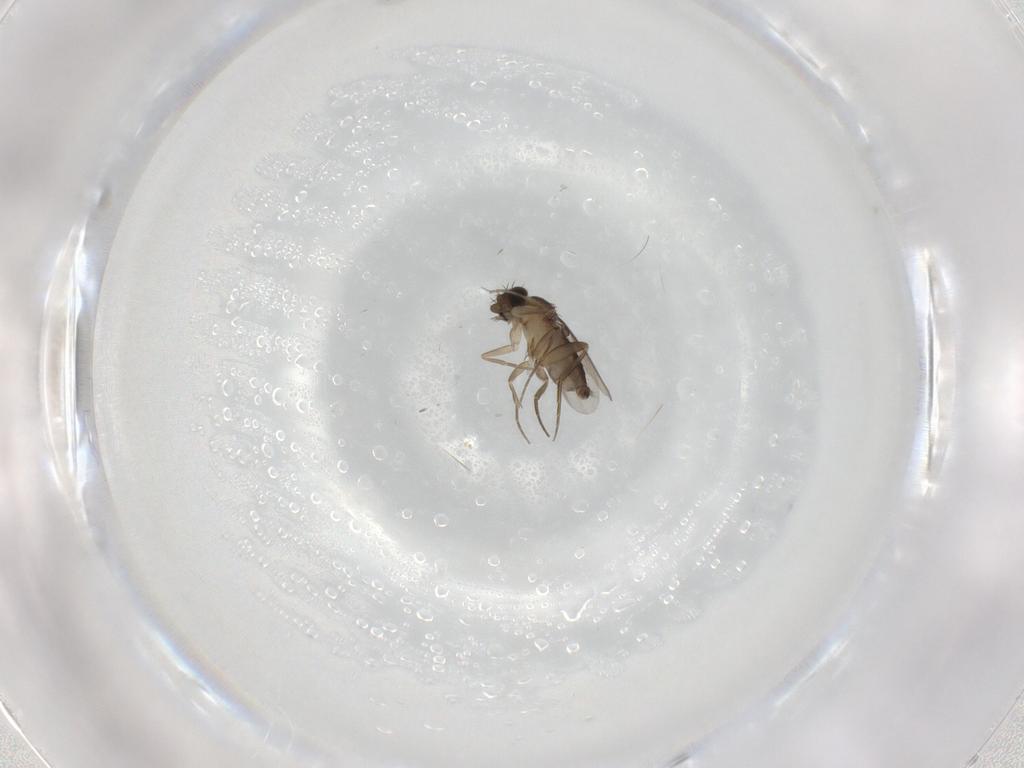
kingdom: Animalia
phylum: Arthropoda
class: Insecta
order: Diptera
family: Phoridae
